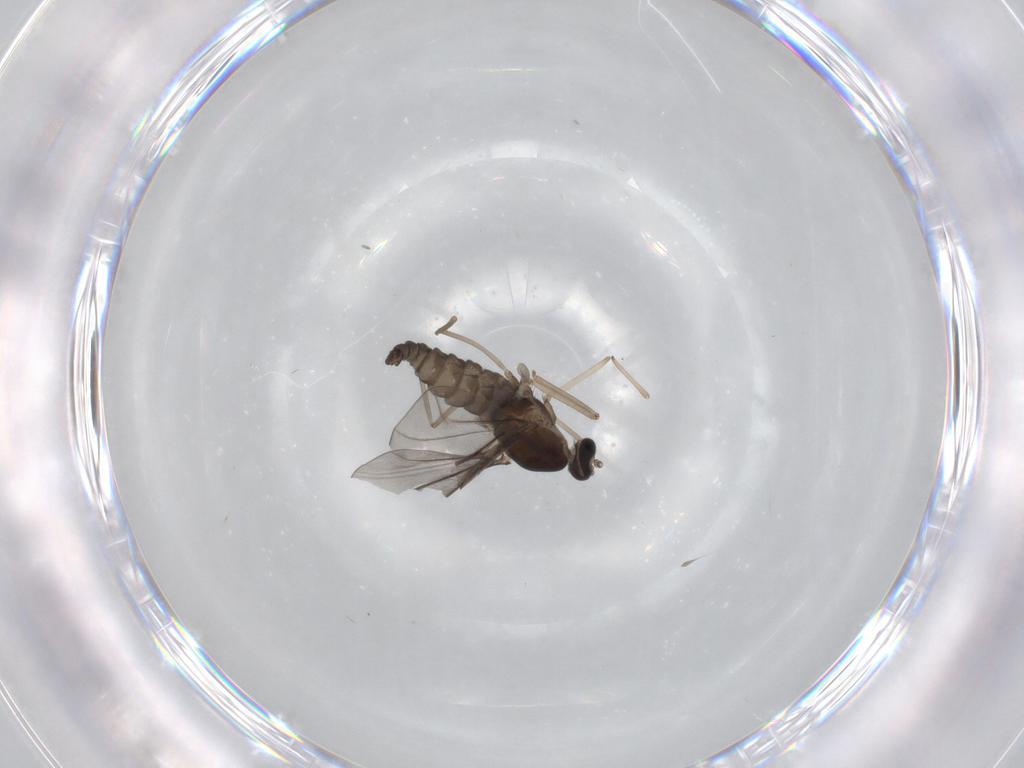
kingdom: Animalia
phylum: Arthropoda
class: Insecta
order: Diptera
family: Cecidomyiidae
